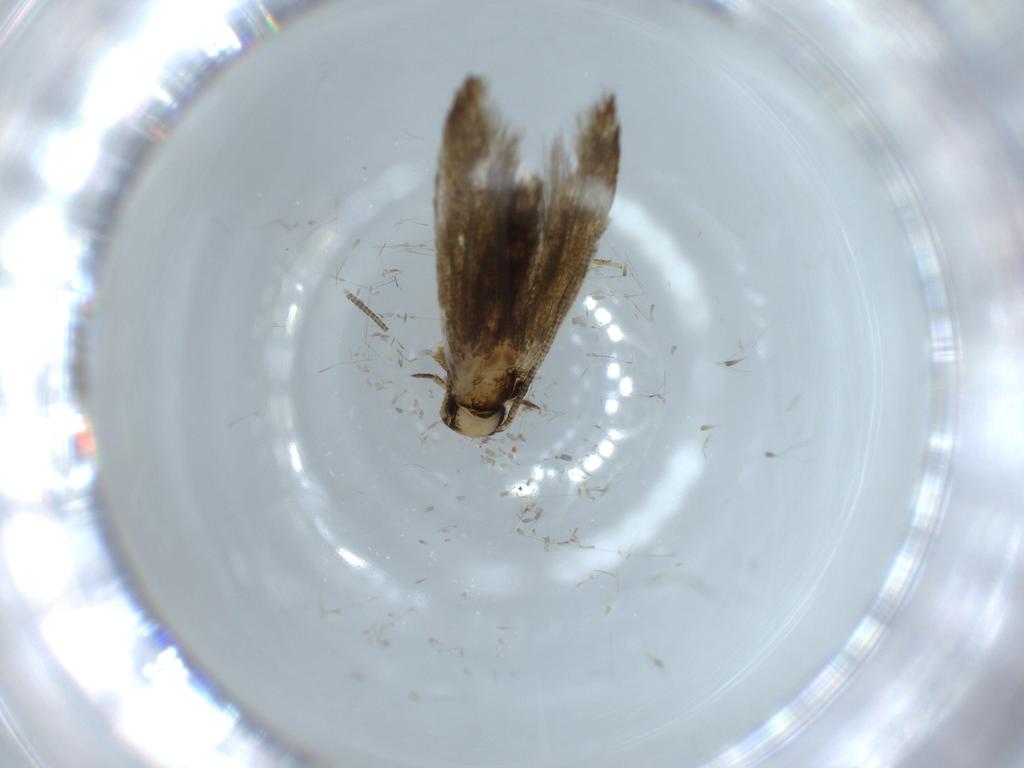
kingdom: Animalia
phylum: Arthropoda
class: Insecta
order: Lepidoptera
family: Tineidae
